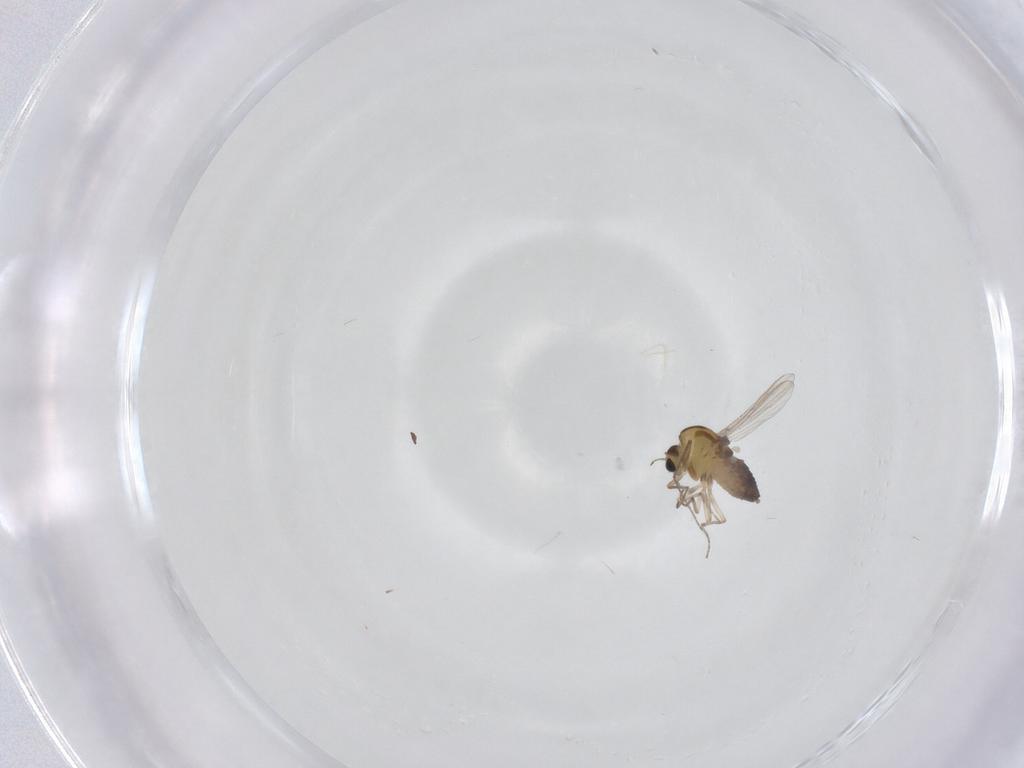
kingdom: Animalia
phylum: Arthropoda
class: Insecta
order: Diptera
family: Chironomidae
